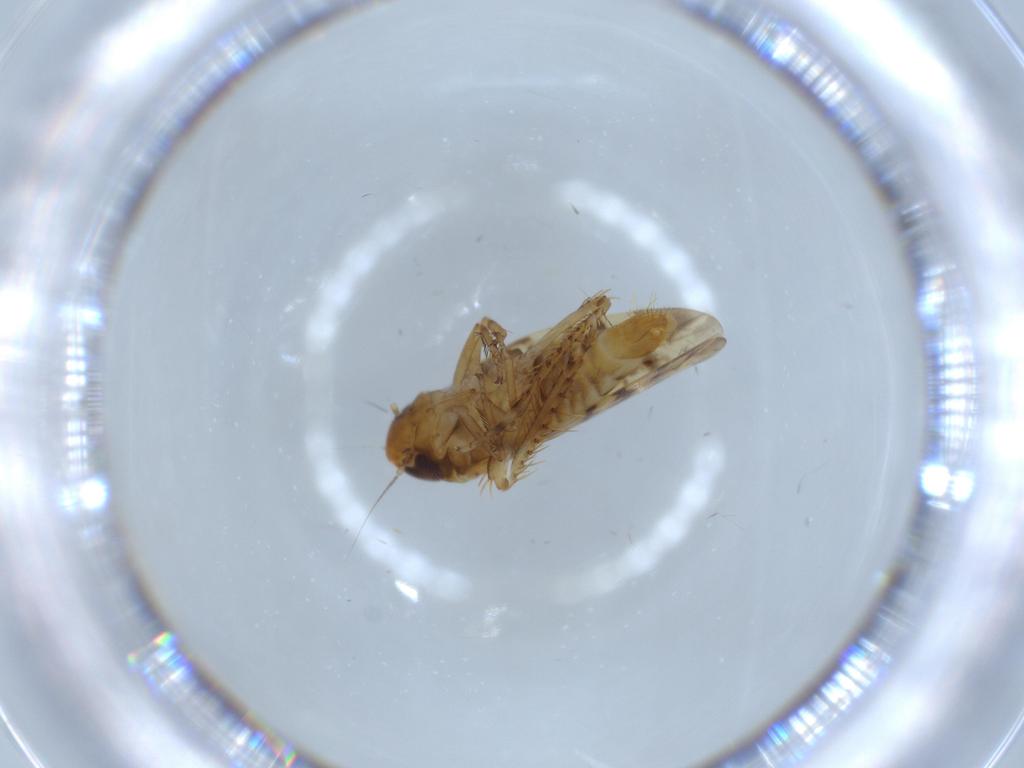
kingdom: Animalia
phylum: Arthropoda
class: Insecta
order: Hemiptera
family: Cicadellidae
